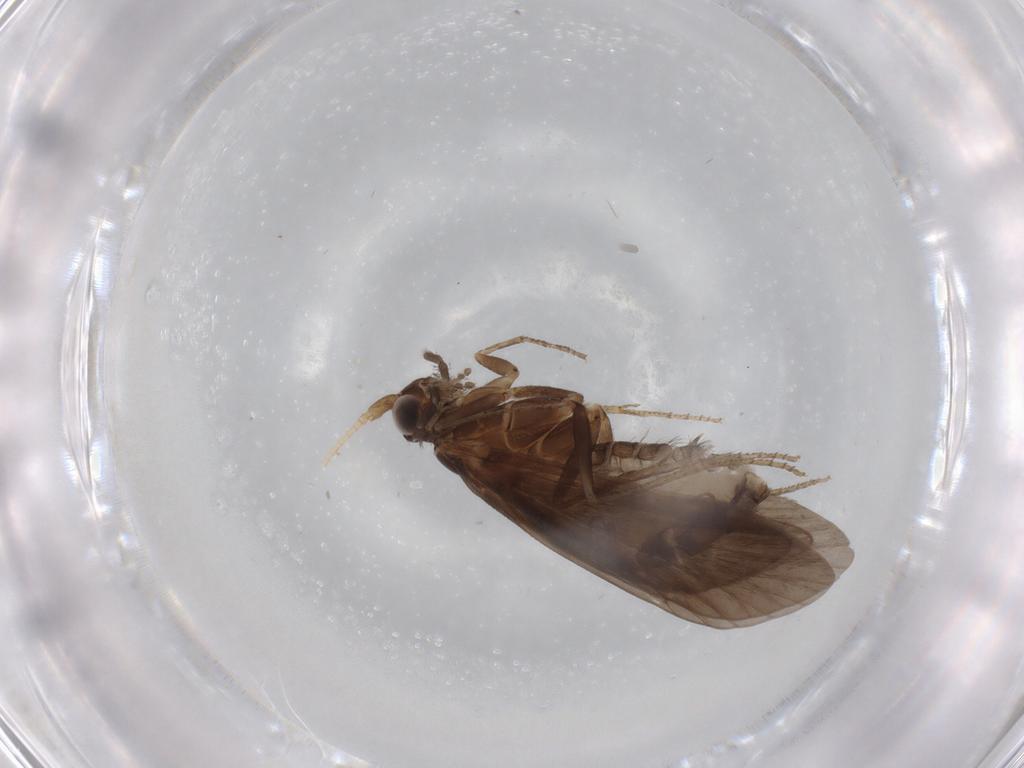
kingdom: Animalia
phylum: Arthropoda
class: Insecta
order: Trichoptera
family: Helicopsychidae
